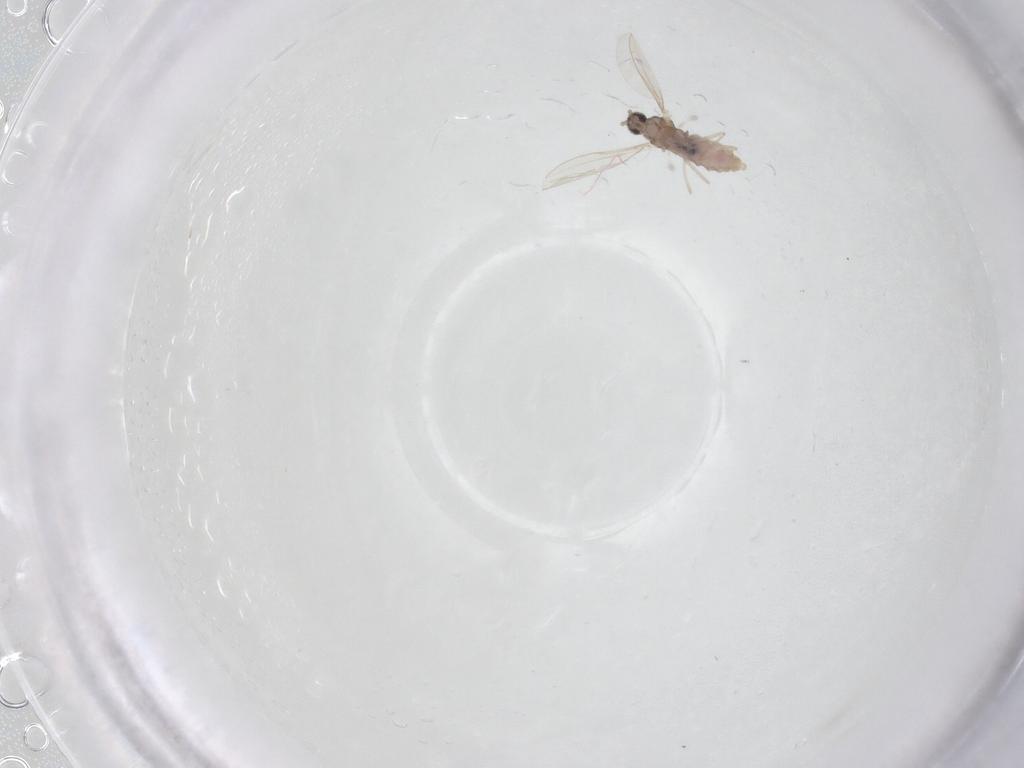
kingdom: Animalia
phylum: Arthropoda
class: Insecta
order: Diptera
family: Cecidomyiidae
